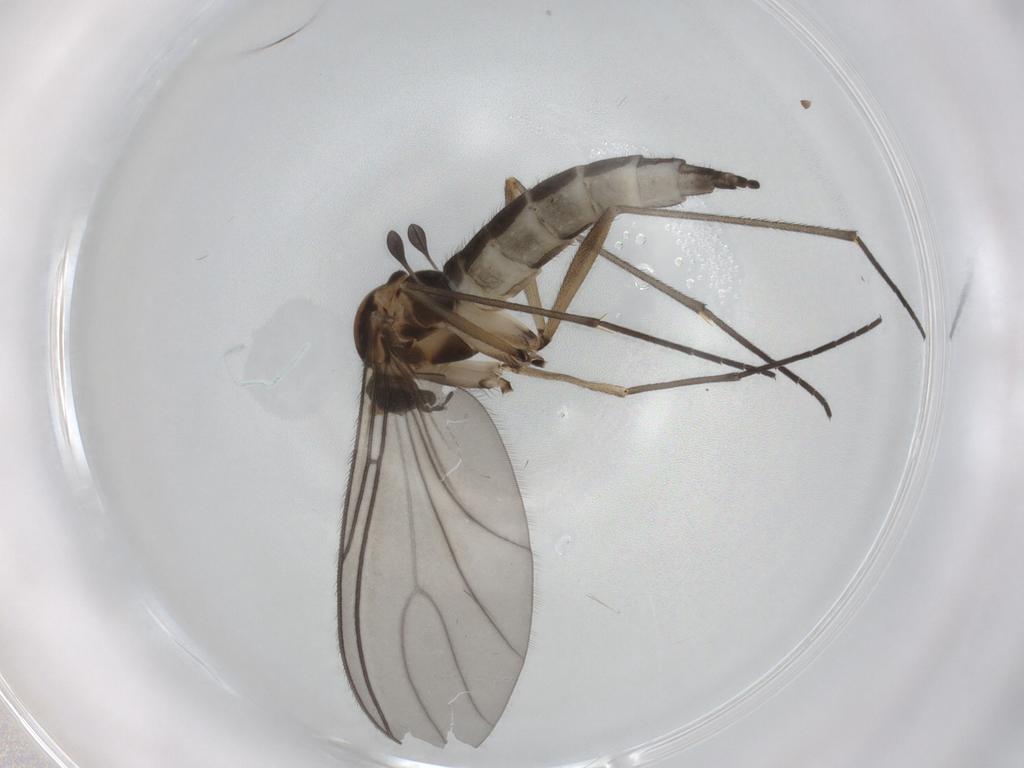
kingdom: Animalia
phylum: Arthropoda
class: Insecta
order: Diptera
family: Sciaridae
